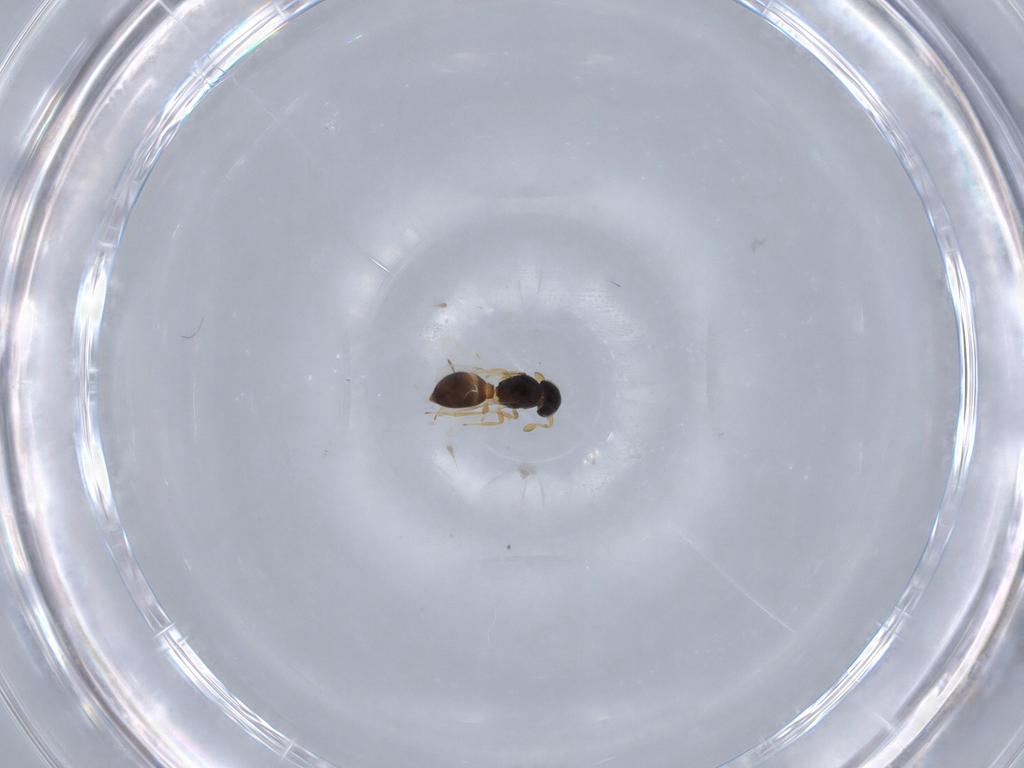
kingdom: Animalia
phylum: Arthropoda
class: Insecta
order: Hymenoptera
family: Scelionidae
